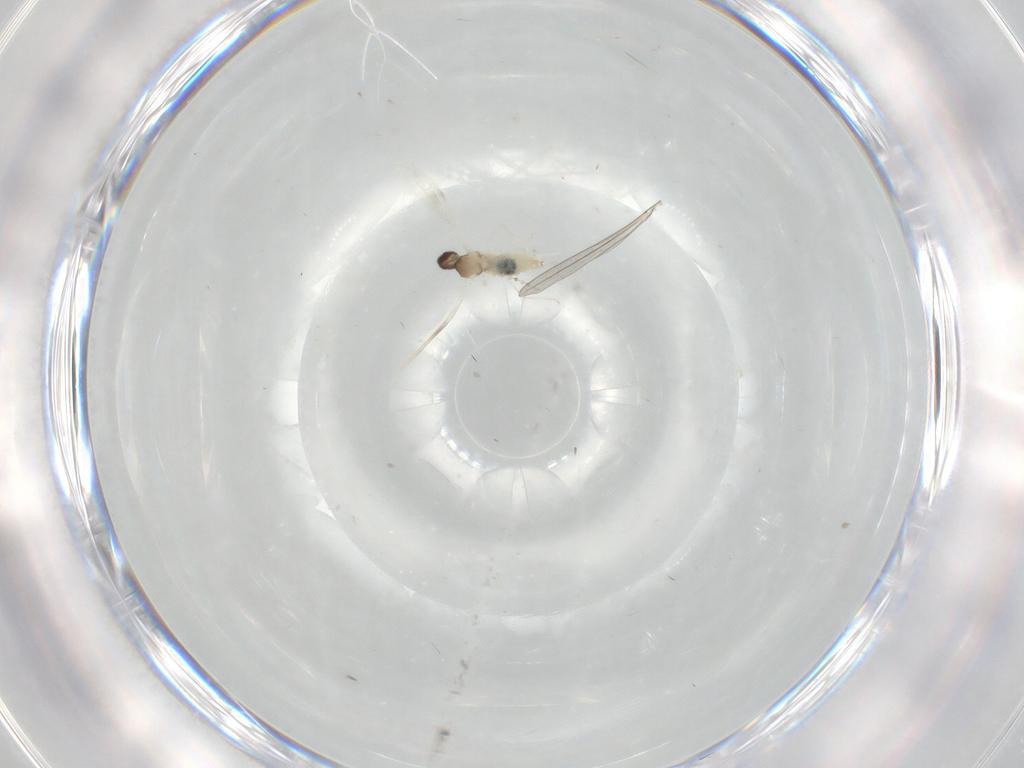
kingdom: Animalia
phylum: Arthropoda
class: Insecta
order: Diptera
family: Cecidomyiidae
